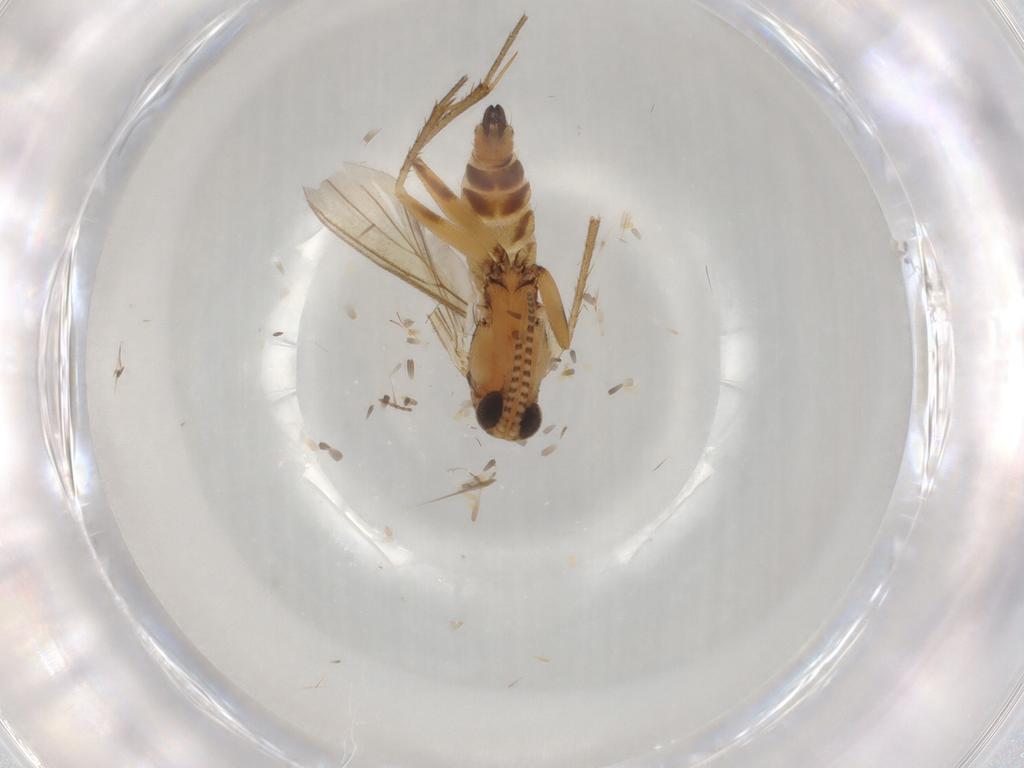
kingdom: Animalia
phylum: Arthropoda
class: Insecta
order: Diptera
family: Mycetophilidae
